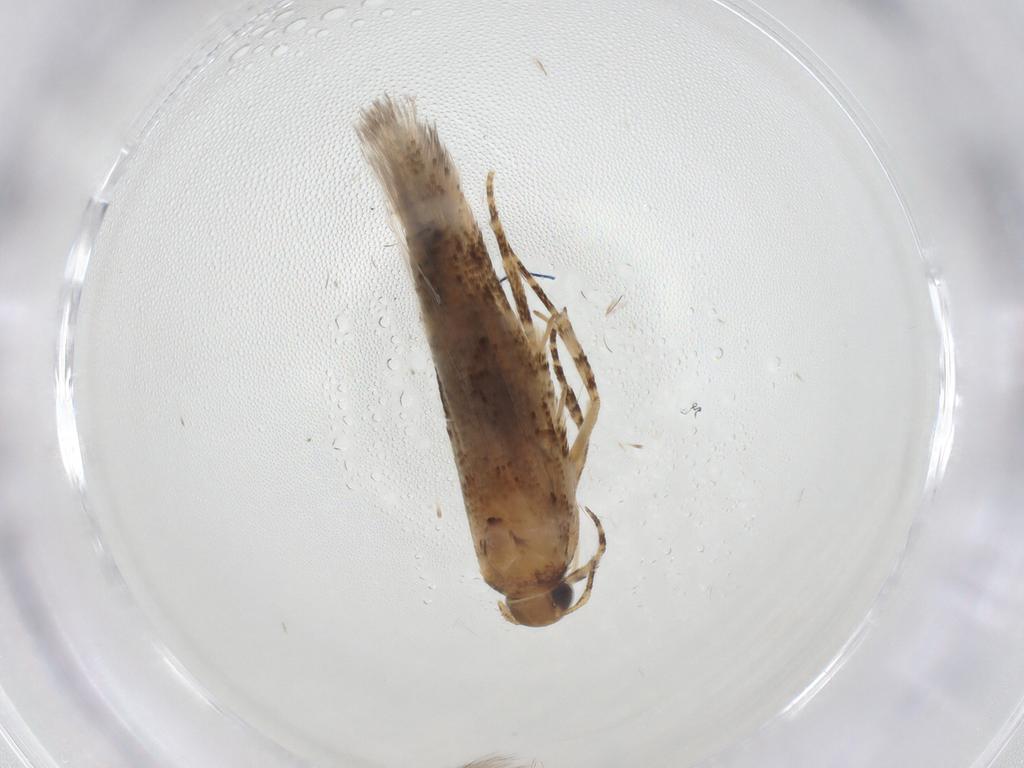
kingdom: Animalia
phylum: Arthropoda
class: Insecta
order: Lepidoptera
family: Gelechiidae
